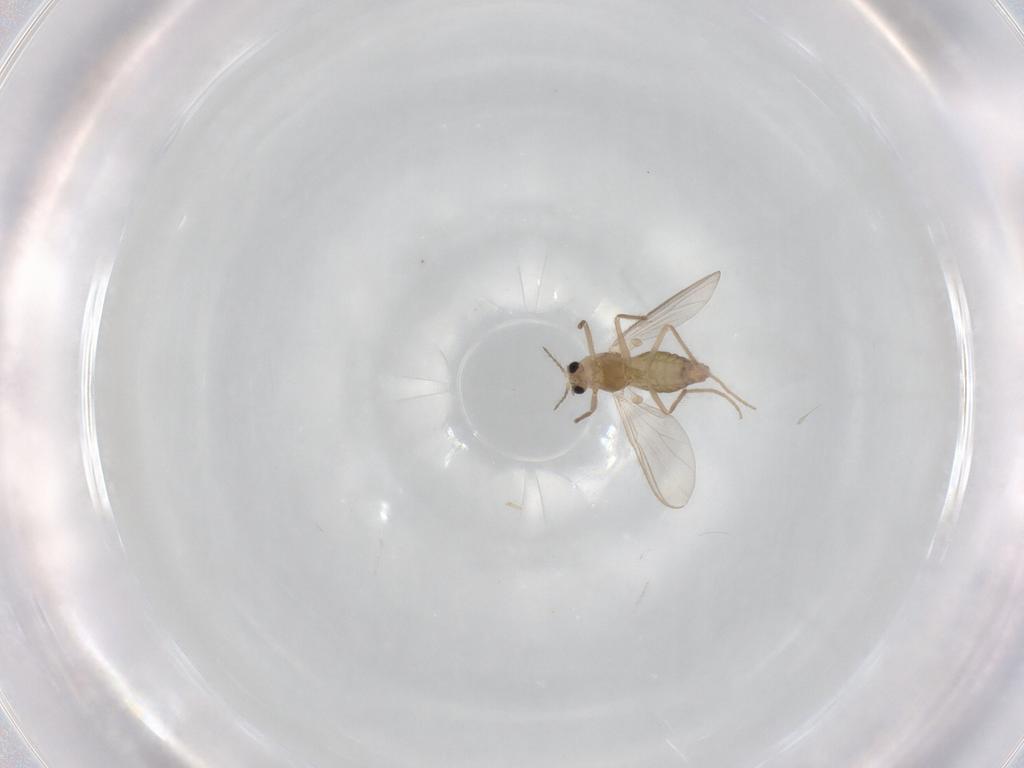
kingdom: Animalia
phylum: Arthropoda
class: Insecta
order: Diptera
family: Chironomidae
